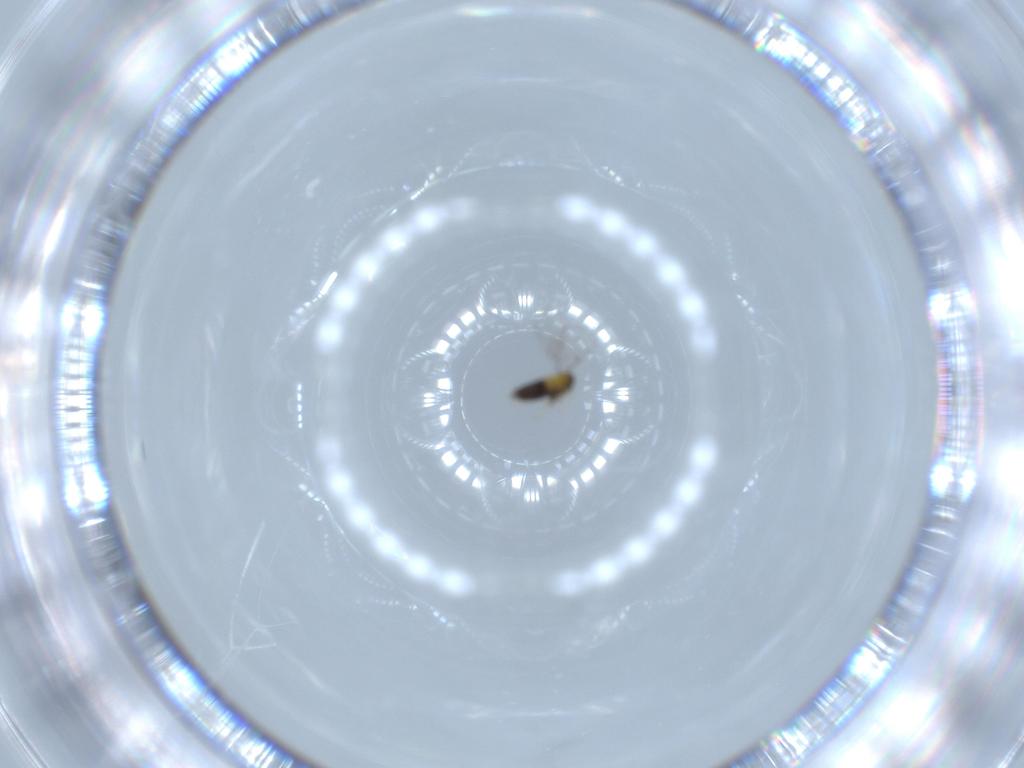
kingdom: Animalia
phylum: Arthropoda
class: Insecta
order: Hymenoptera
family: Trichogrammatidae
